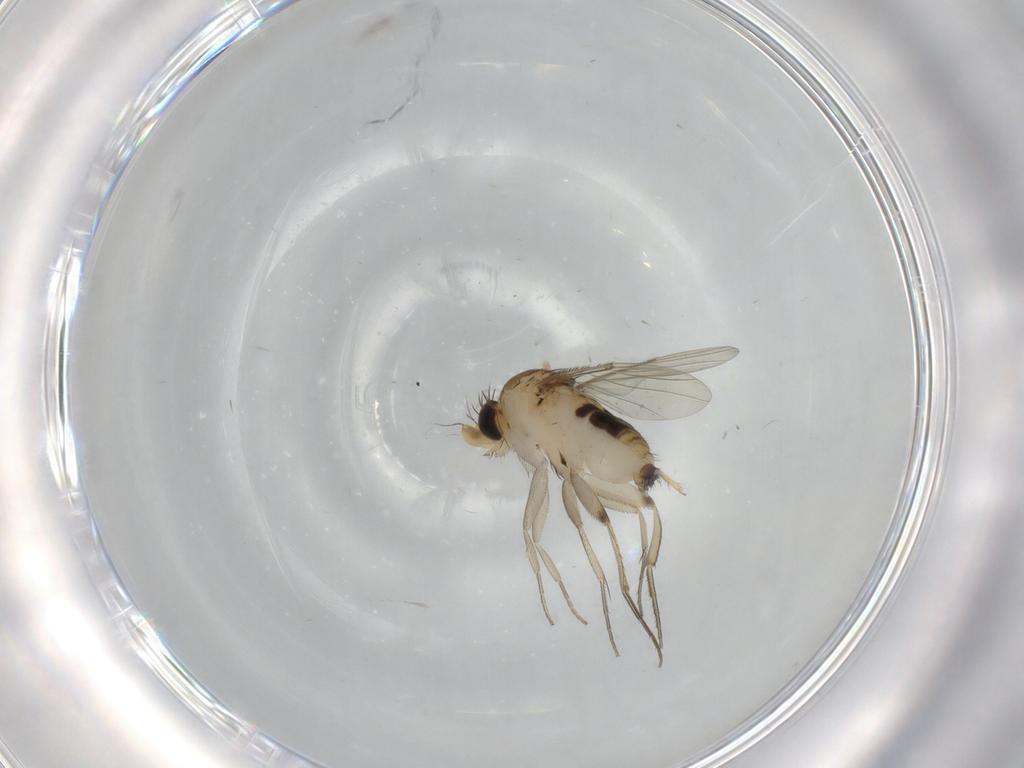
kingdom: Animalia
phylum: Arthropoda
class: Insecta
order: Diptera
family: Phoridae
